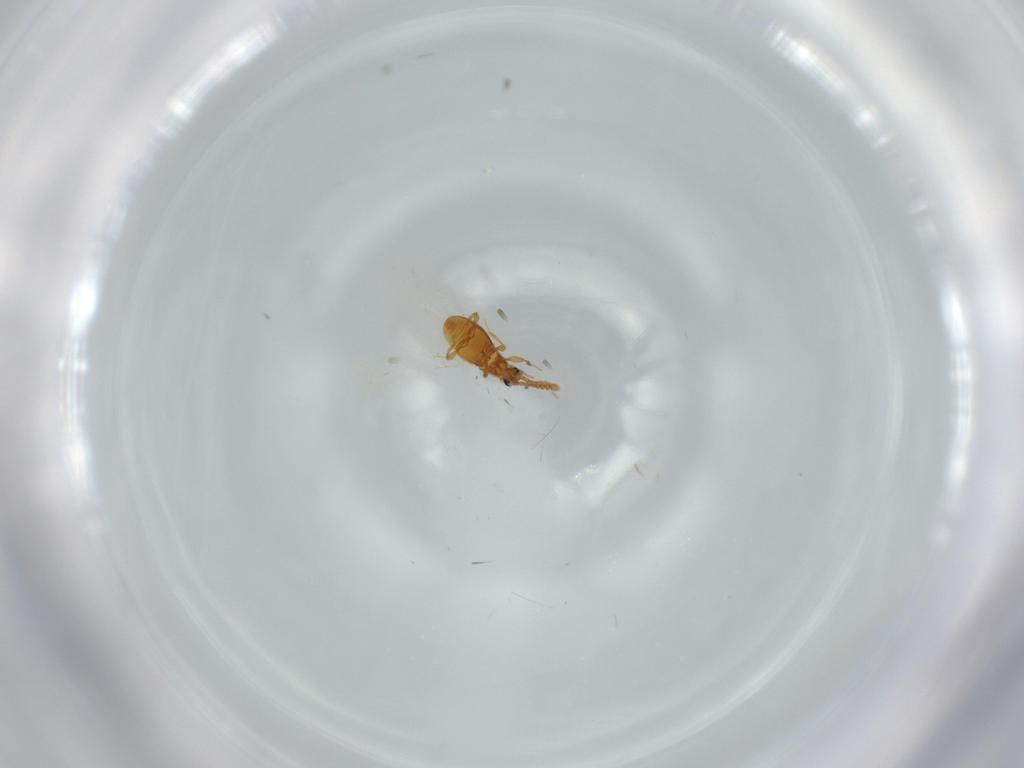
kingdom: Animalia
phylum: Arthropoda
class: Insecta
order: Coleoptera
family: Staphylinidae
